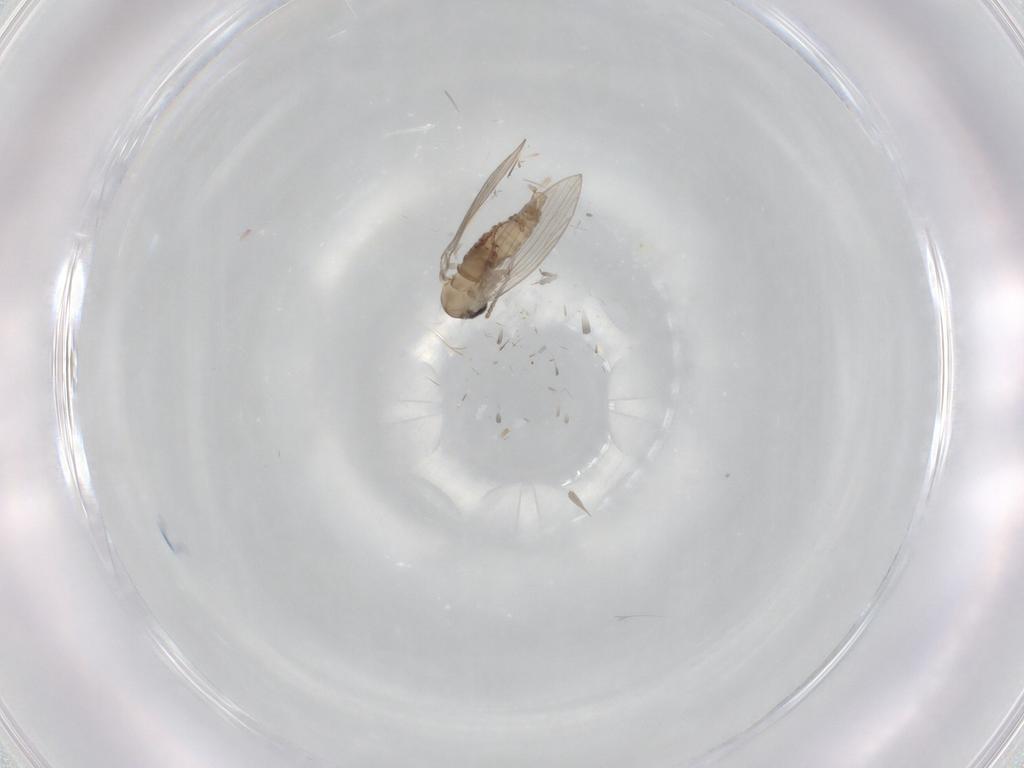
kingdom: Animalia
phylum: Arthropoda
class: Insecta
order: Diptera
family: Psychodidae
